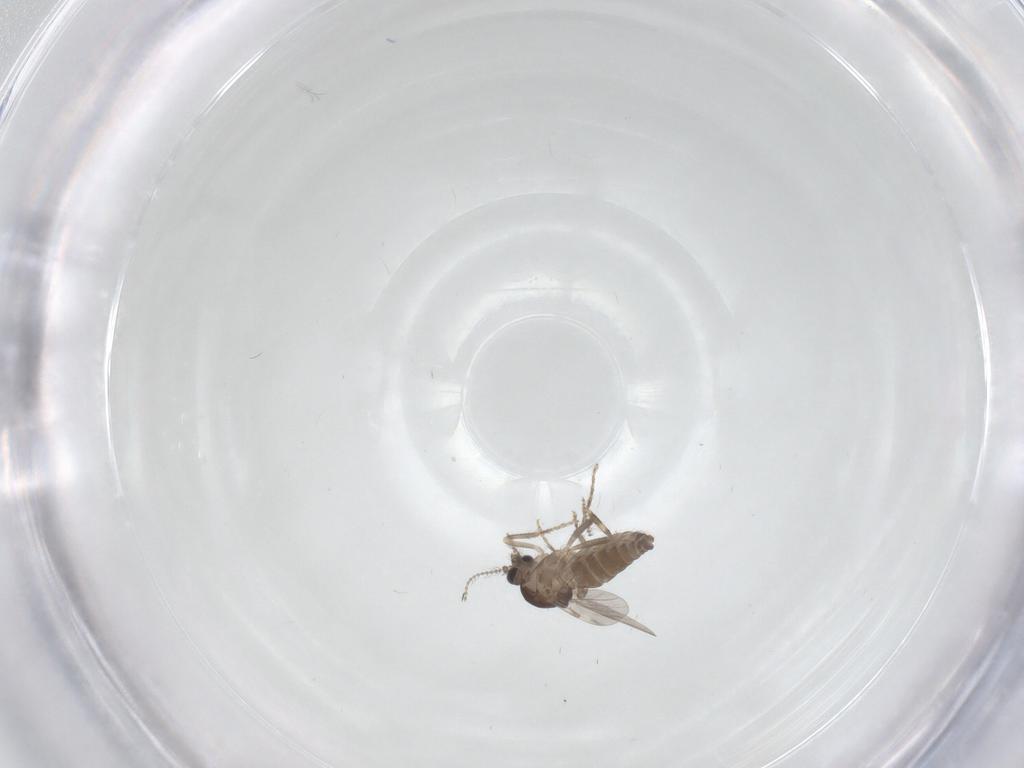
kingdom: Animalia
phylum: Arthropoda
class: Insecta
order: Diptera
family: Ceratopogonidae
